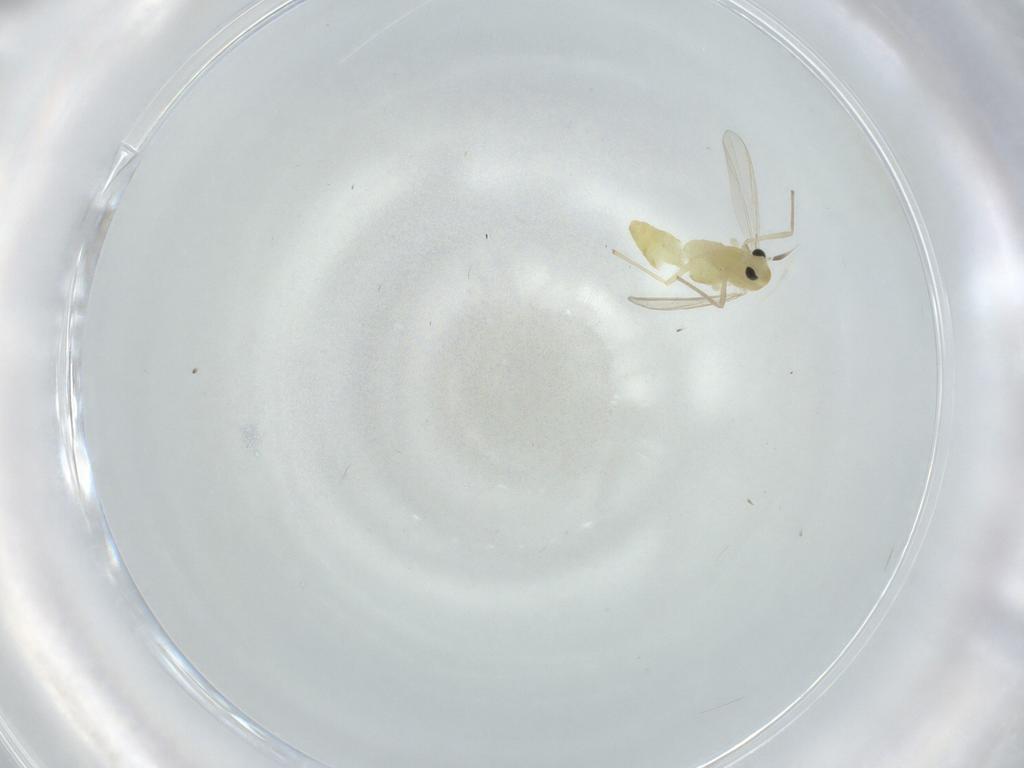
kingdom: Animalia
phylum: Arthropoda
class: Insecta
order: Diptera
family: Chironomidae
